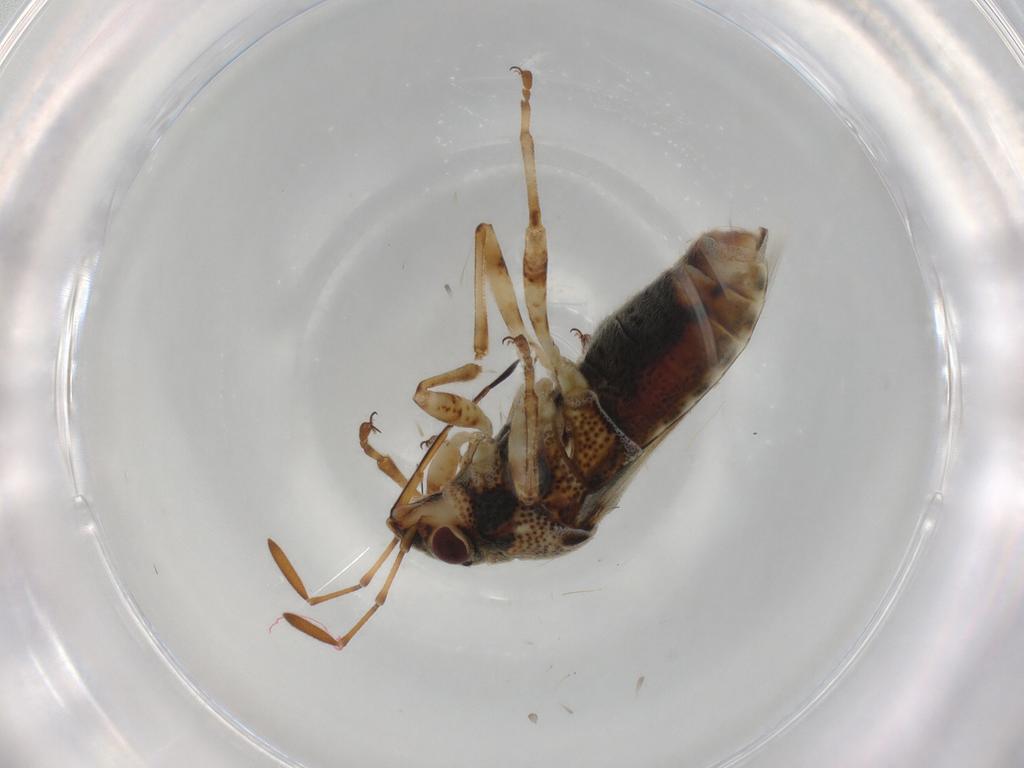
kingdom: Animalia
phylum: Arthropoda
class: Insecta
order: Hemiptera
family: Lygaeidae
